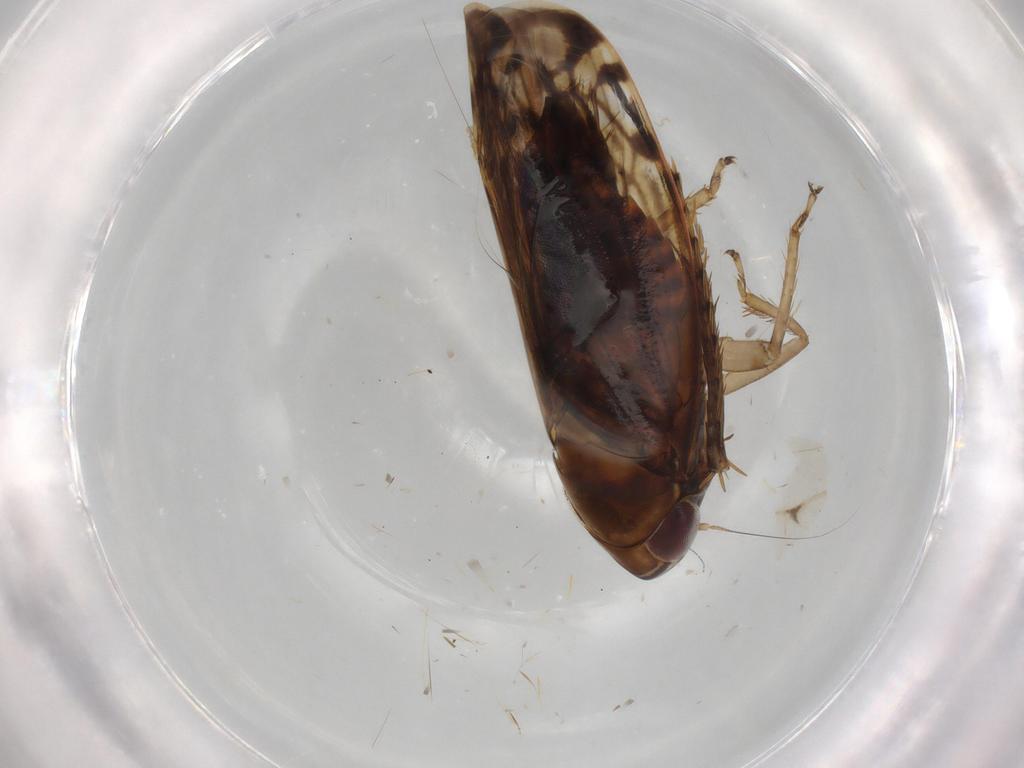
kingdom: Animalia
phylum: Arthropoda
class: Insecta
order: Hemiptera
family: Cicadellidae
